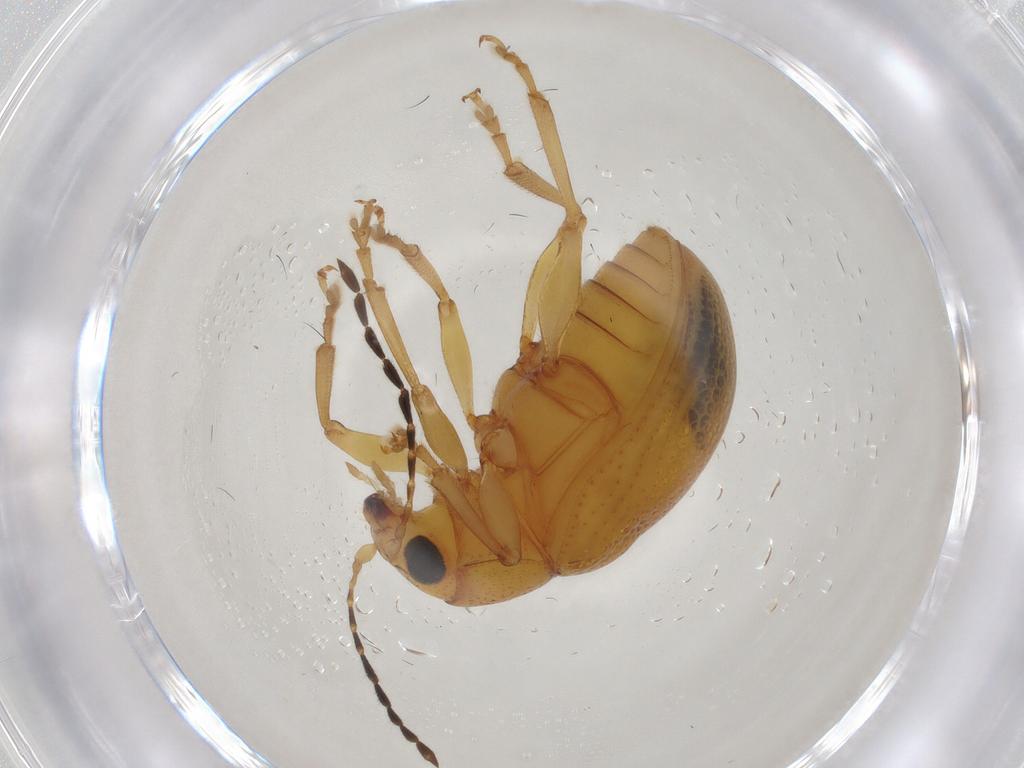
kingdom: Animalia
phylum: Arthropoda
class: Insecta
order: Coleoptera
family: Chrysomelidae
